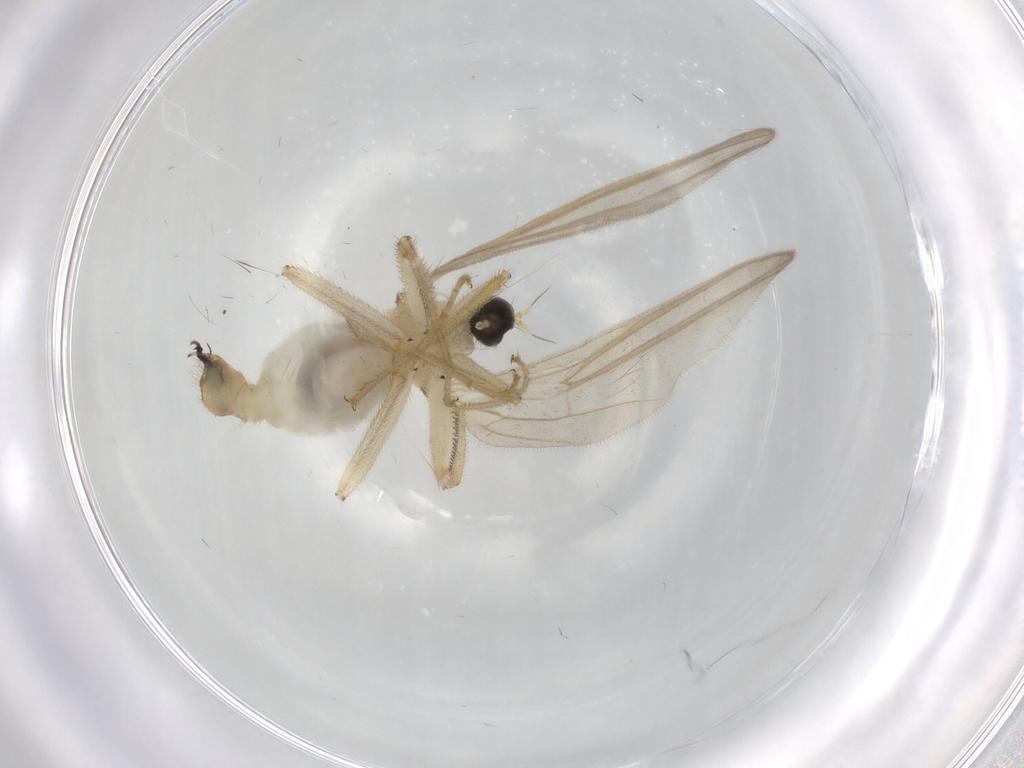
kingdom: Animalia
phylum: Arthropoda
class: Insecta
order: Diptera
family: Hybotidae
